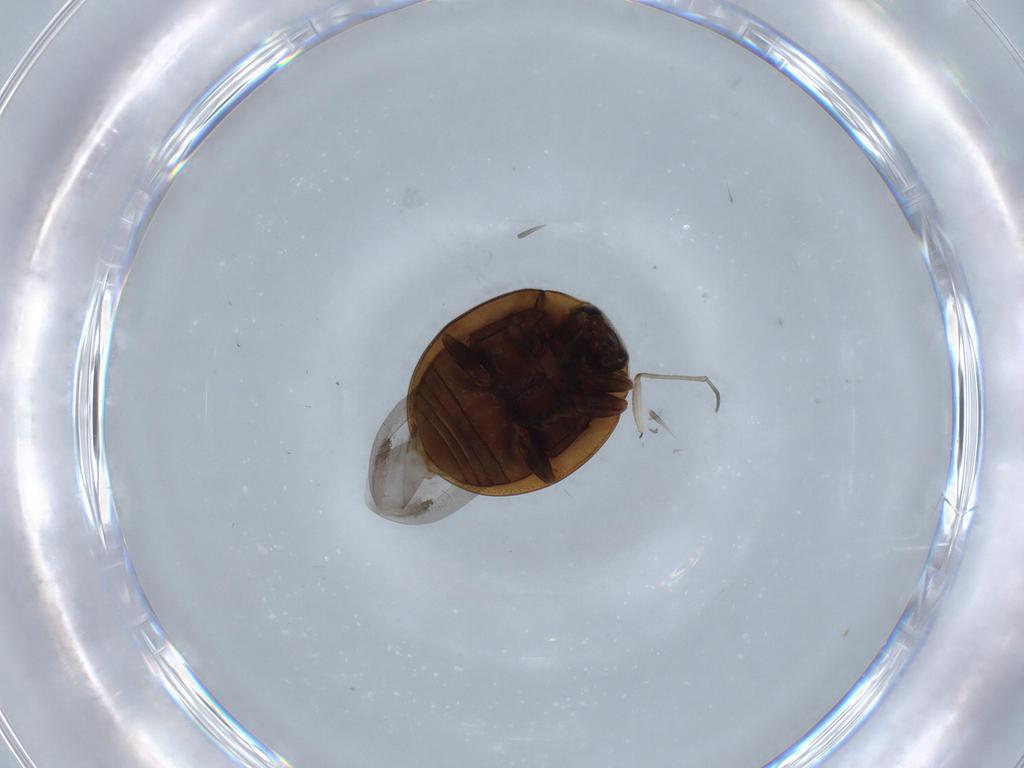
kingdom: Animalia
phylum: Arthropoda
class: Insecta
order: Coleoptera
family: Coccinellidae
